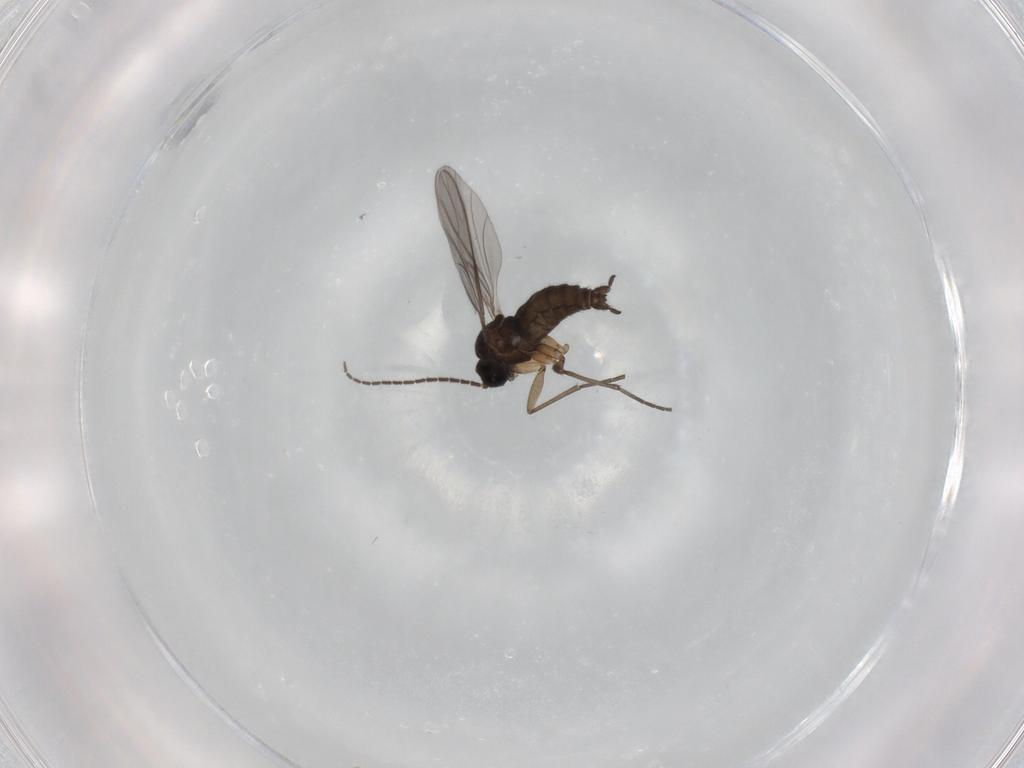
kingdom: Animalia
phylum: Arthropoda
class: Insecta
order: Diptera
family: Sciaridae
